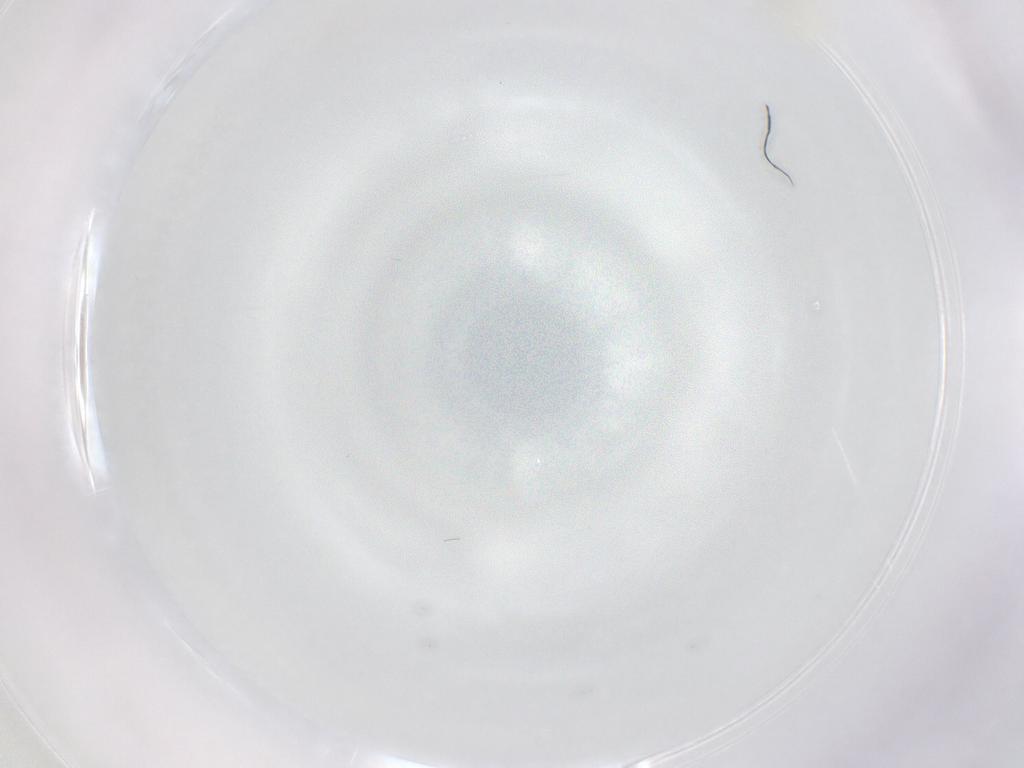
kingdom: Animalia
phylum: Arthropoda
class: Insecta
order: Diptera
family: Cecidomyiidae
